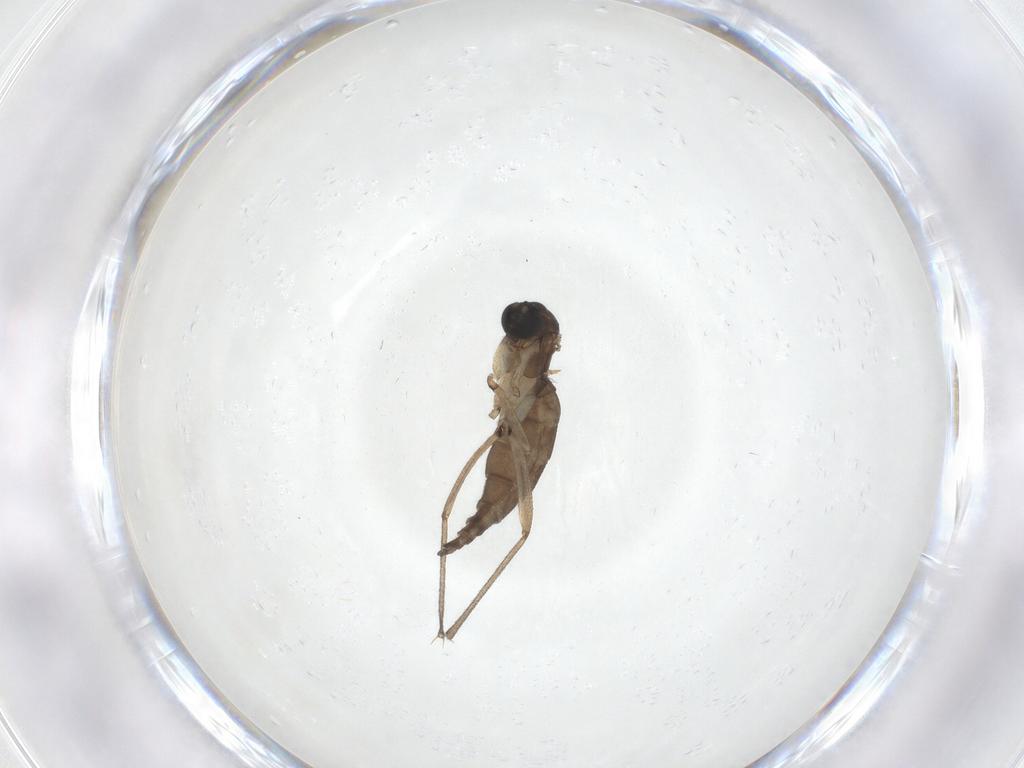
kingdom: Animalia
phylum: Arthropoda
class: Insecta
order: Diptera
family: Sciaridae
